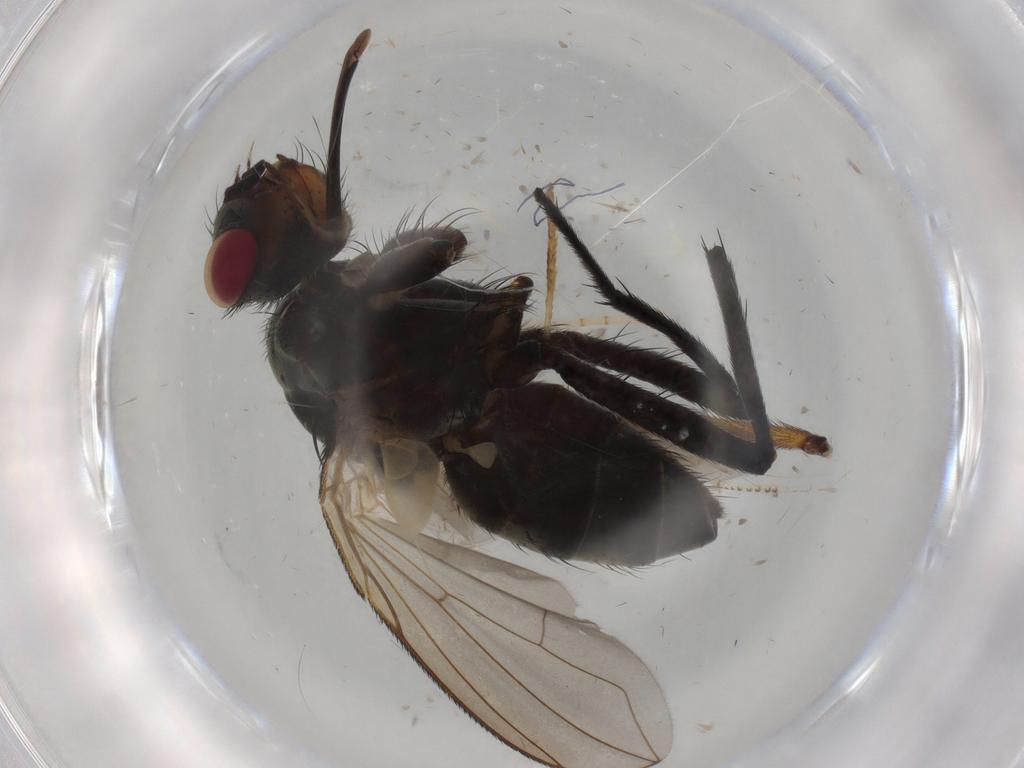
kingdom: Animalia
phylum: Arthropoda
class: Insecta
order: Diptera
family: Tachinidae
